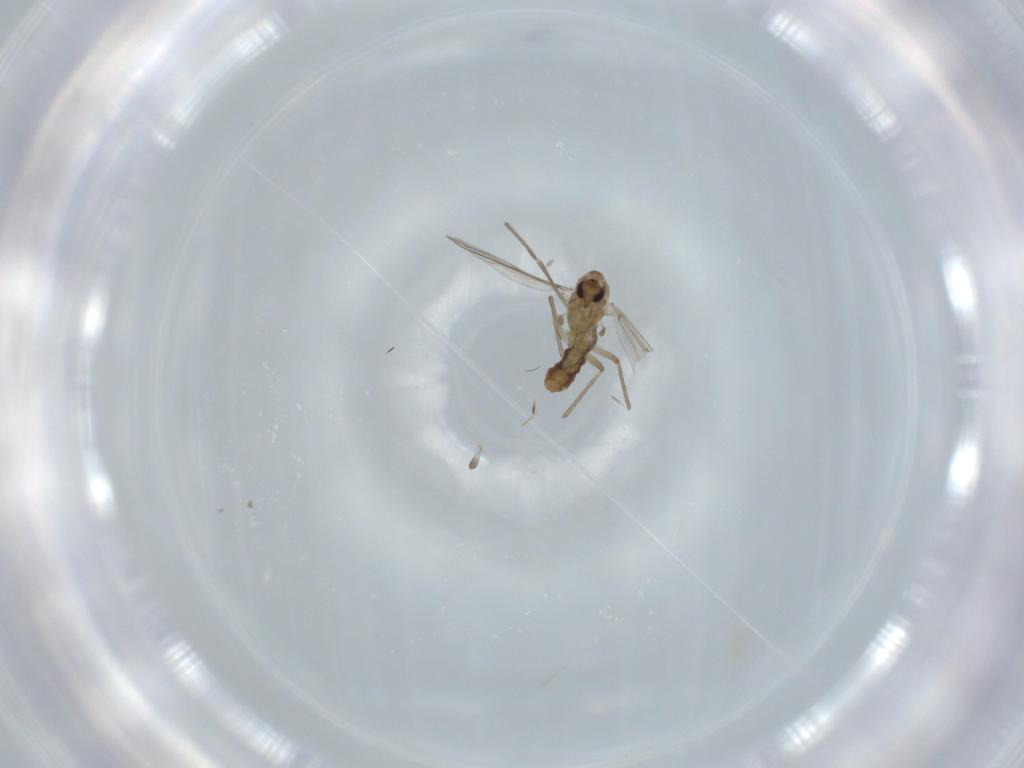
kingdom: Animalia
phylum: Arthropoda
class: Insecta
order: Diptera
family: Chironomidae
